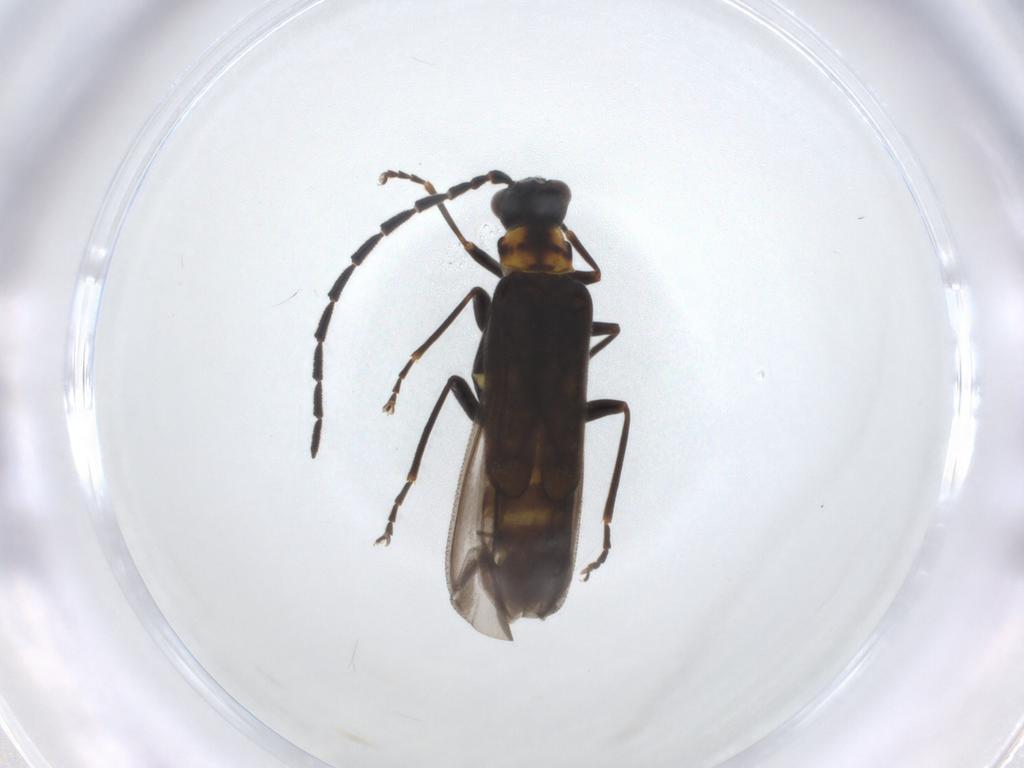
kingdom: Animalia
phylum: Arthropoda
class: Insecta
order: Coleoptera
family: Cantharidae
